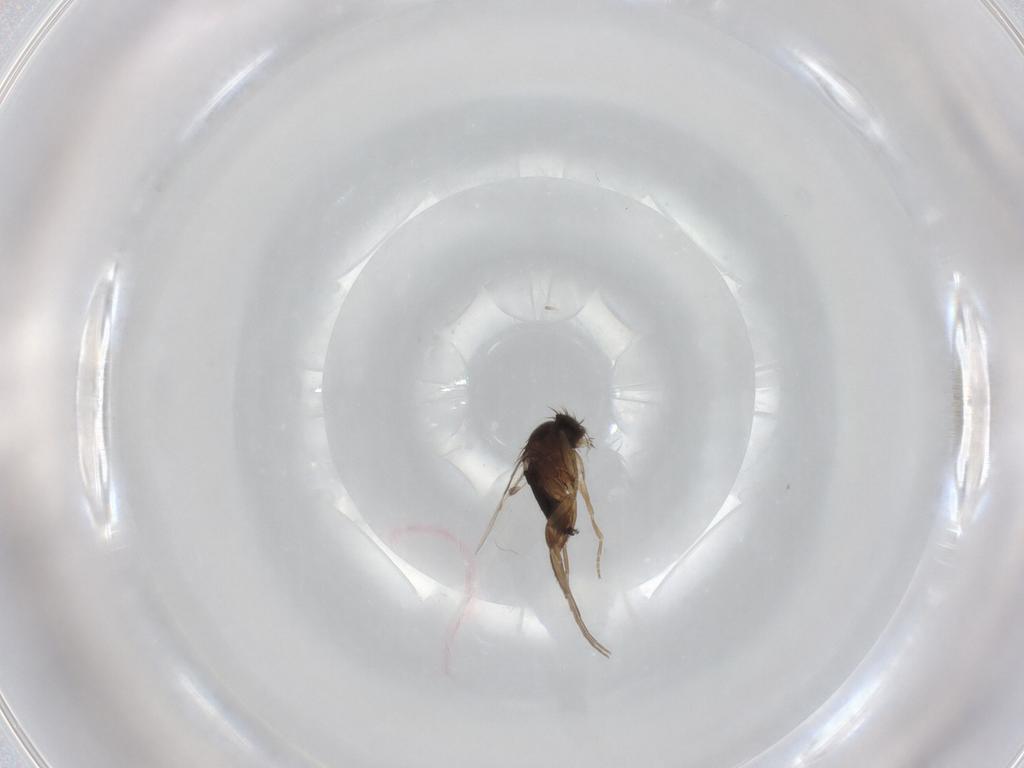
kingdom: Animalia
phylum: Arthropoda
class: Insecta
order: Diptera
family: Phoridae
